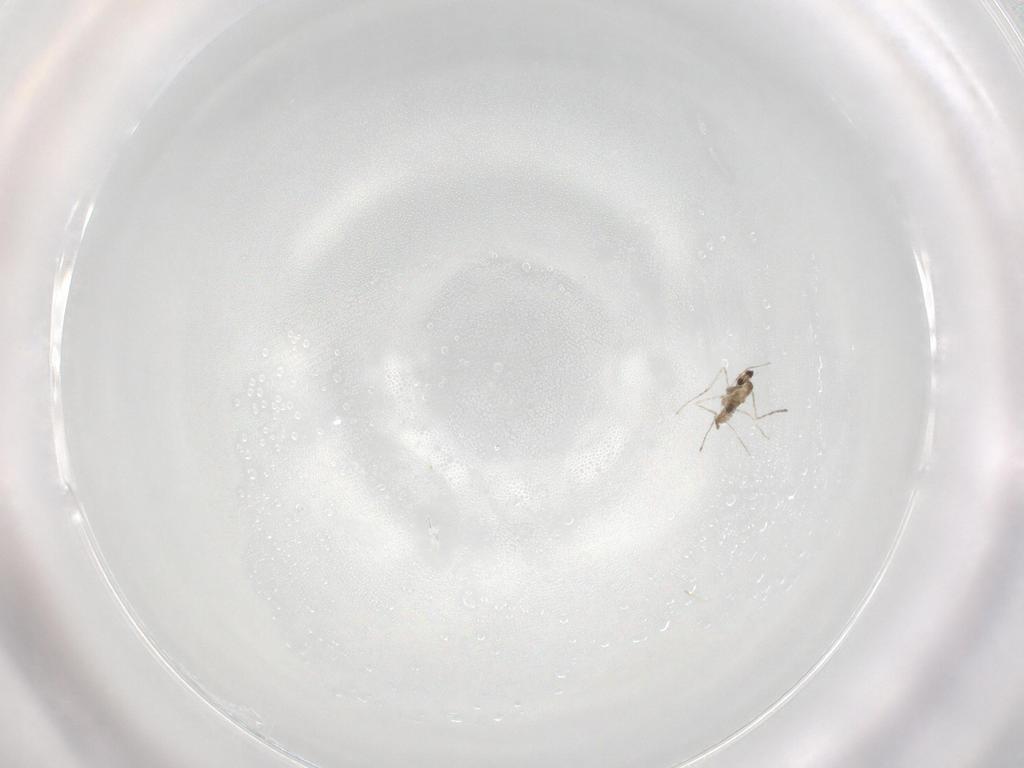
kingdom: Animalia
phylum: Arthropoda
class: Insecta
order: Diptera
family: Cecidomyiidae
